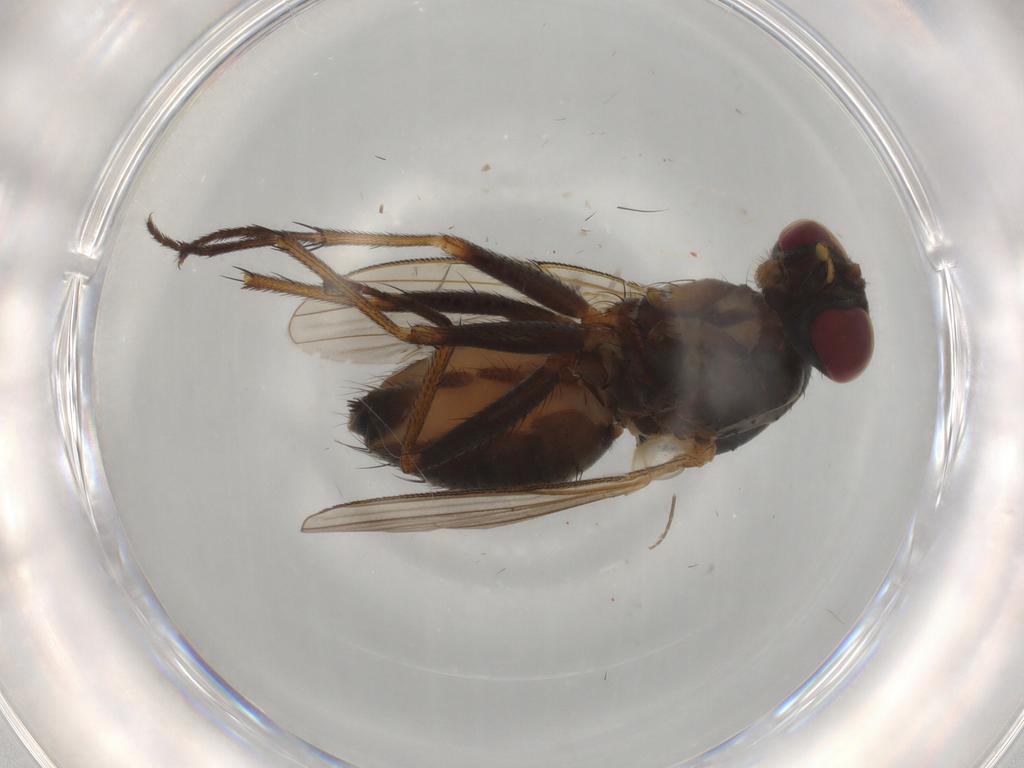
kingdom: Animalia
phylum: Arthropoda
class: Insecta
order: Diptera
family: Muscidae
